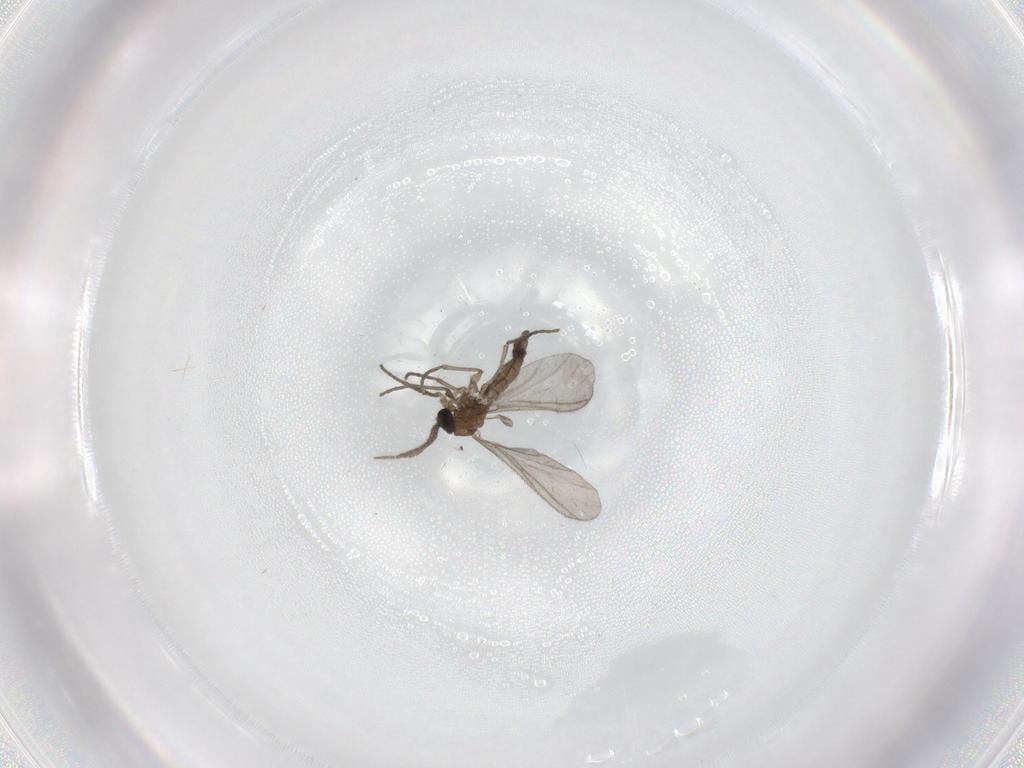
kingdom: Animalia
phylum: Arthropoda
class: Insecta
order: Diptera
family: Sciaridae
